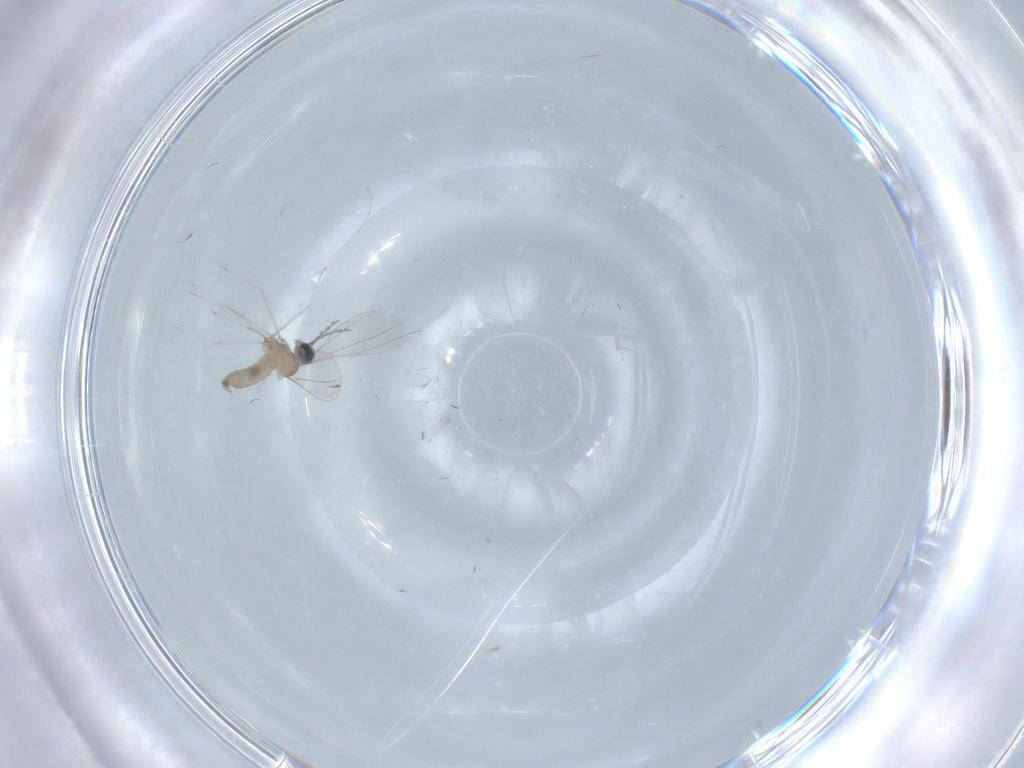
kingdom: Animalia
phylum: Arthropoda
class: Insecta
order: Diptera
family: Cecidomyiidae
